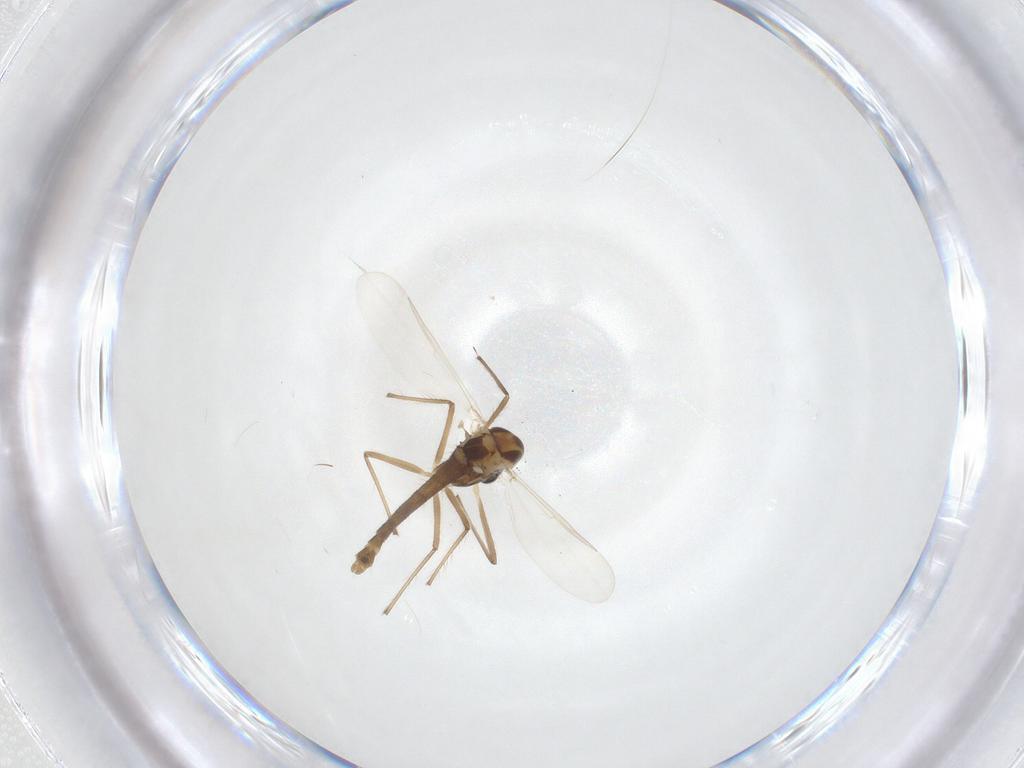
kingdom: Animalia
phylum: Arthropoda
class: Insecta
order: Diptera
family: Chironomidae
